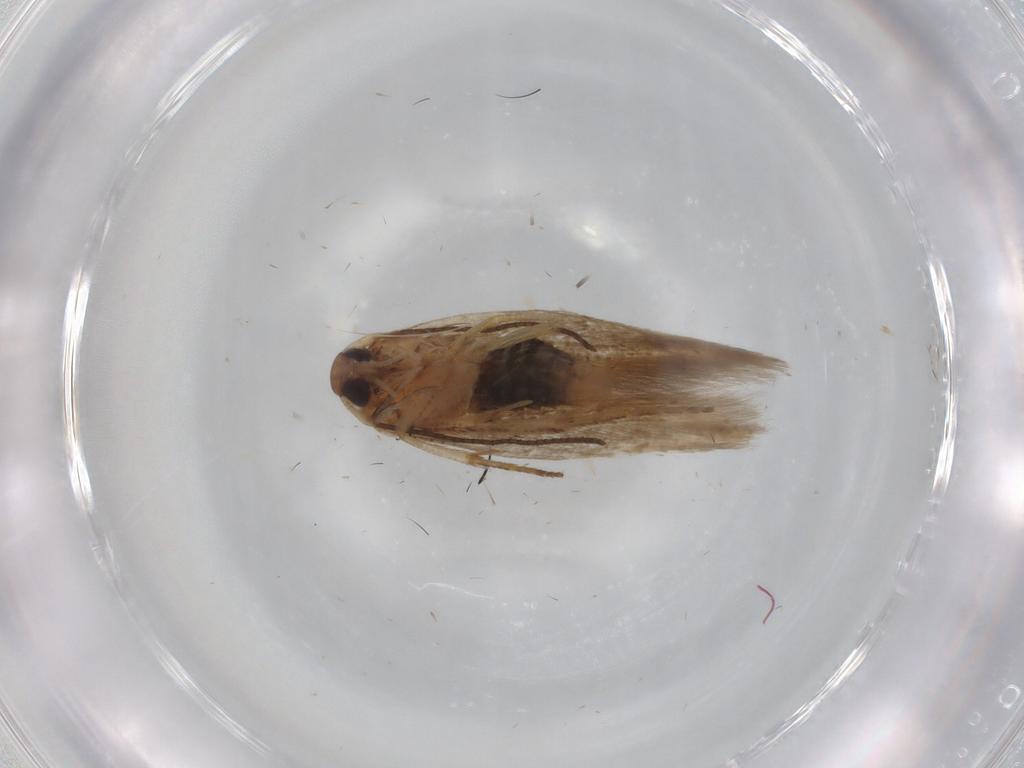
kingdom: Animalia
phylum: Arthropoda
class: Insecta
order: Lepidoptera
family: Cosmopterigidae
